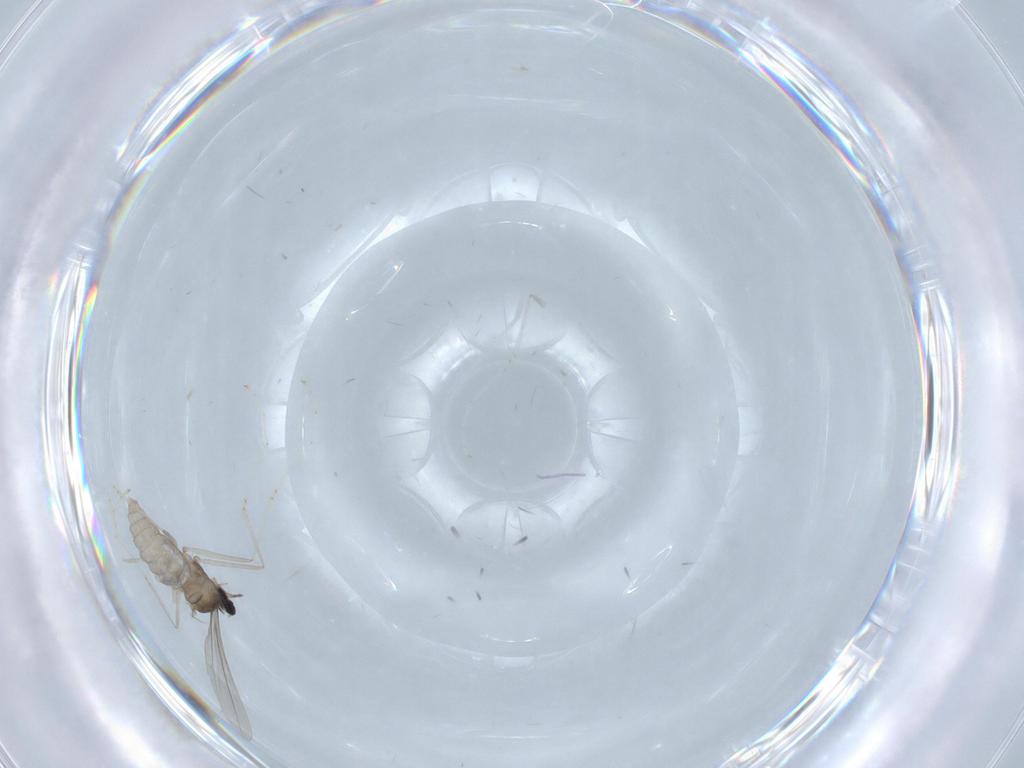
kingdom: Animalia
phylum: Arthropoda
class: Insecta
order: Diptera
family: Cecidomyiidae
